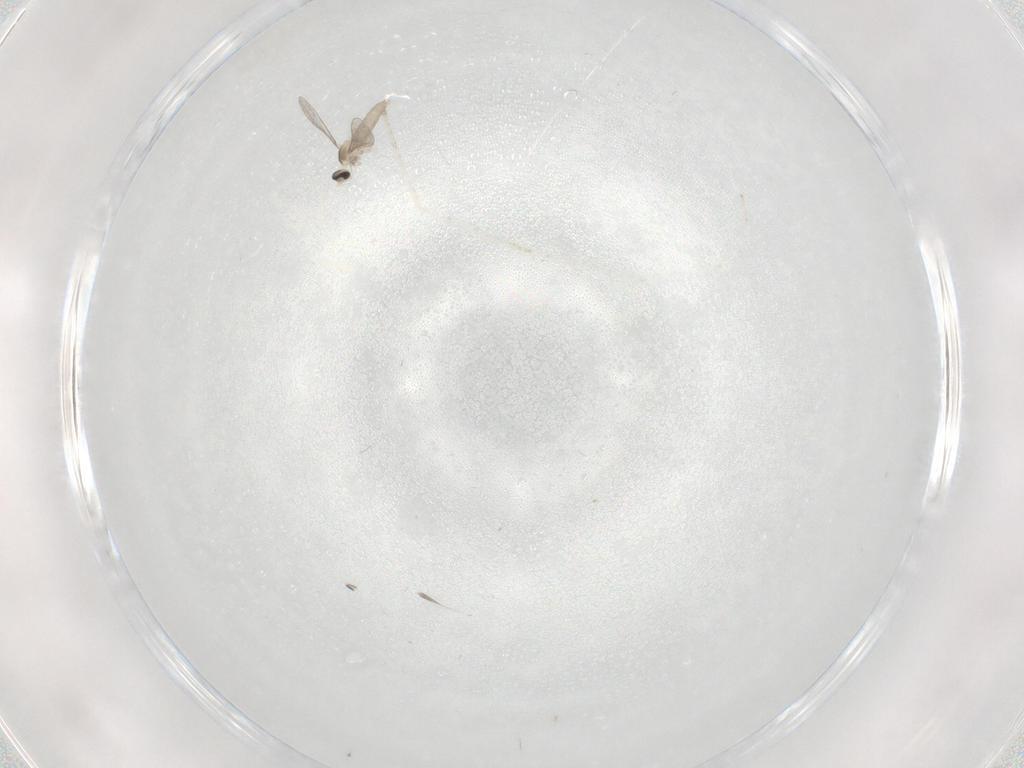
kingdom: Animalia
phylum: Arthropoda
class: Insecta
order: Diptera
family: Cecidomyiidae
